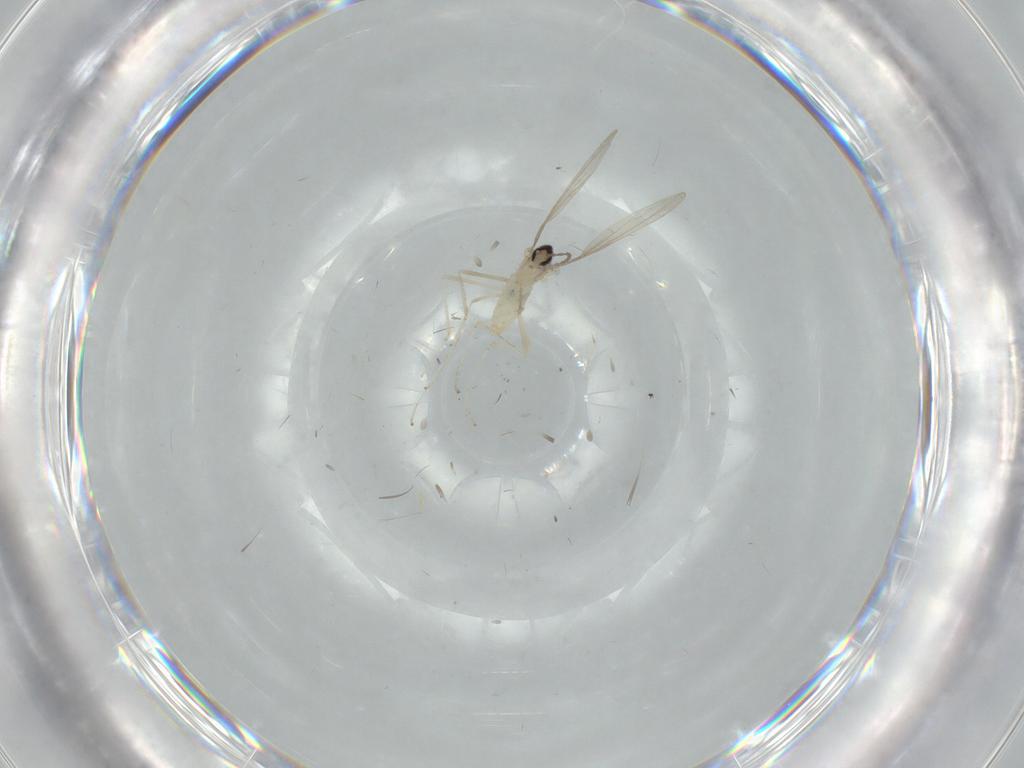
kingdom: Animalia
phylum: Arthropoda
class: Insecta
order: Diptera
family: Cecidomyiidae
